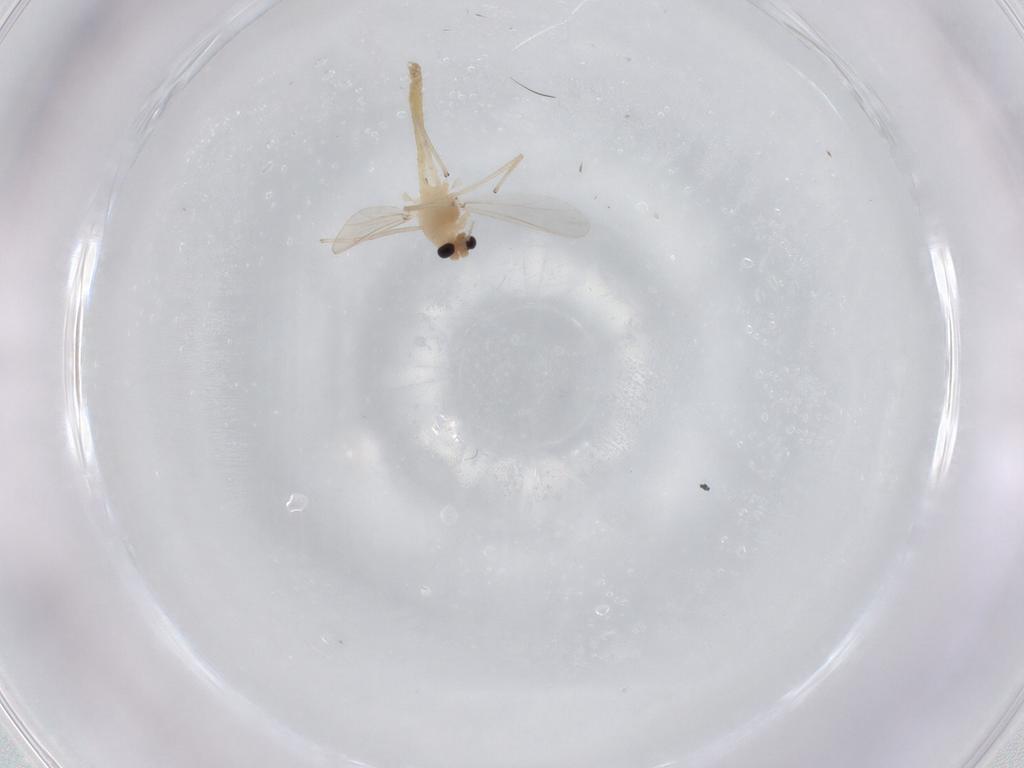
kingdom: Animalia
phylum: Arthropoda
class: Insecta
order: Diptera
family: Chironomidae
